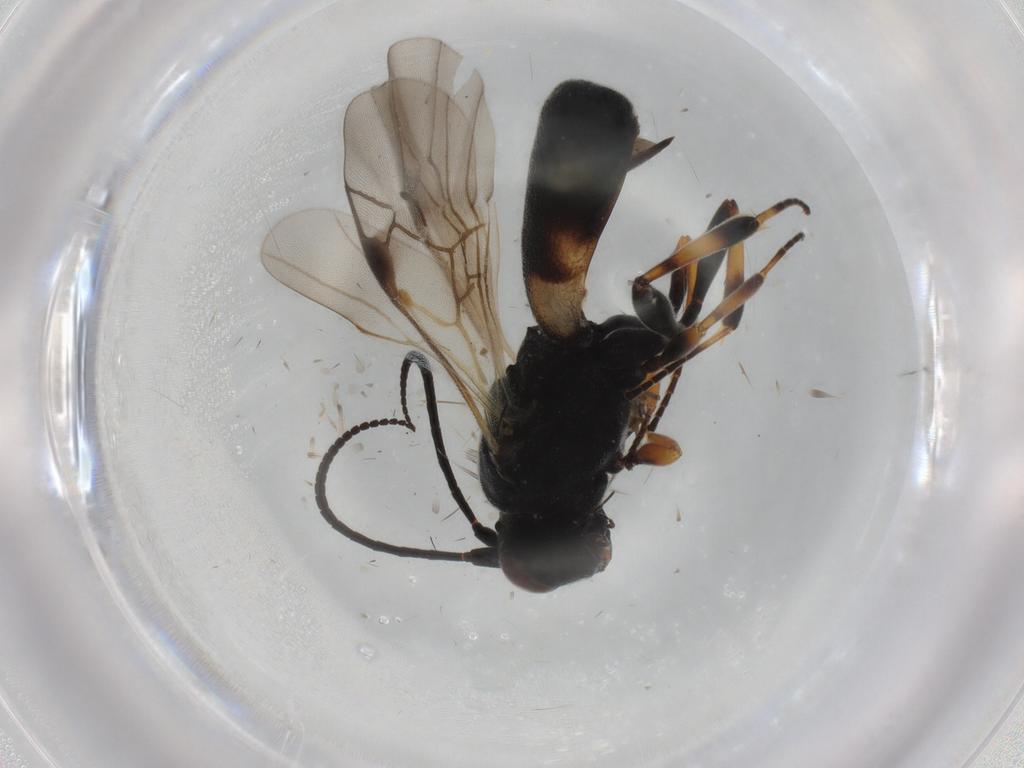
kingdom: Animalia
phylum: Arthropoda
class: Insecta
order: Hymenoptera
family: Braconidae
